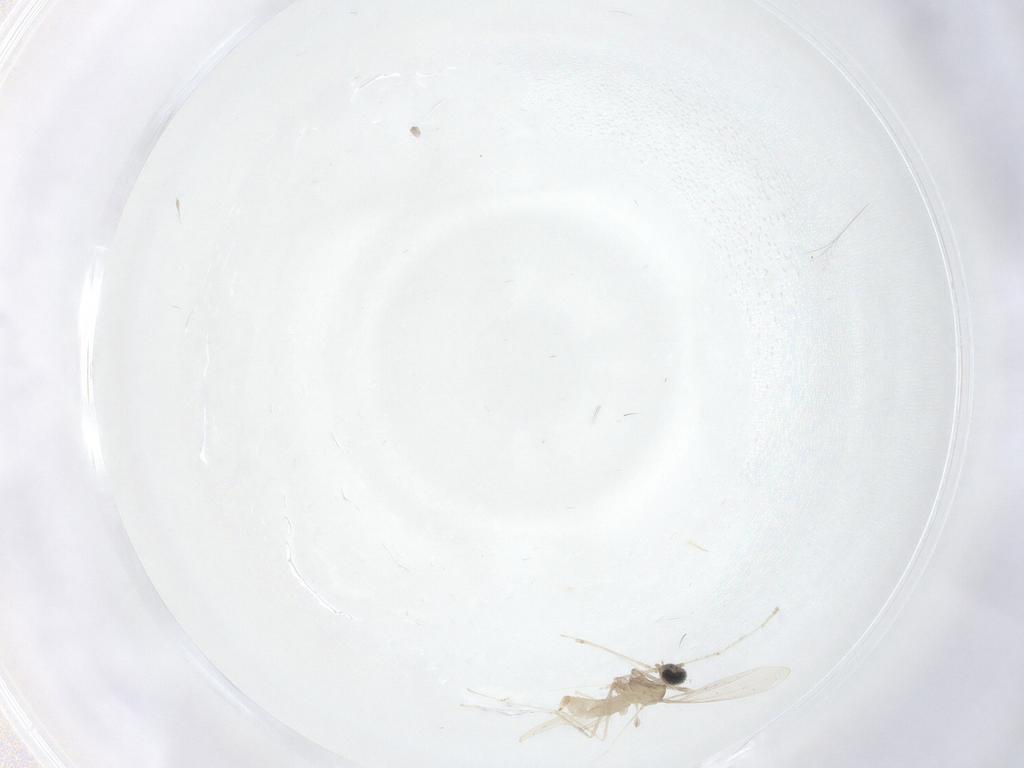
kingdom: Animalia
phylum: Arthropoda
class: Insecta
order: Diptera
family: Cecidomyiidae
